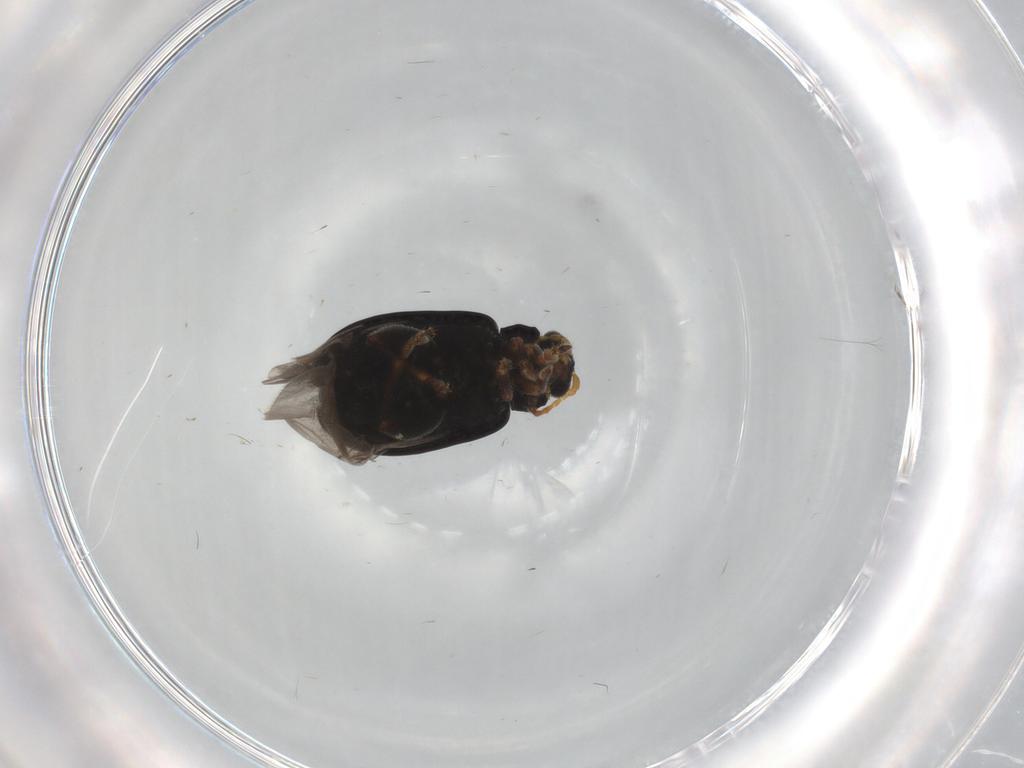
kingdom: Animalia
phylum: Arthropoda
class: Insecta
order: Coleoptera
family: Chrysomelidae
